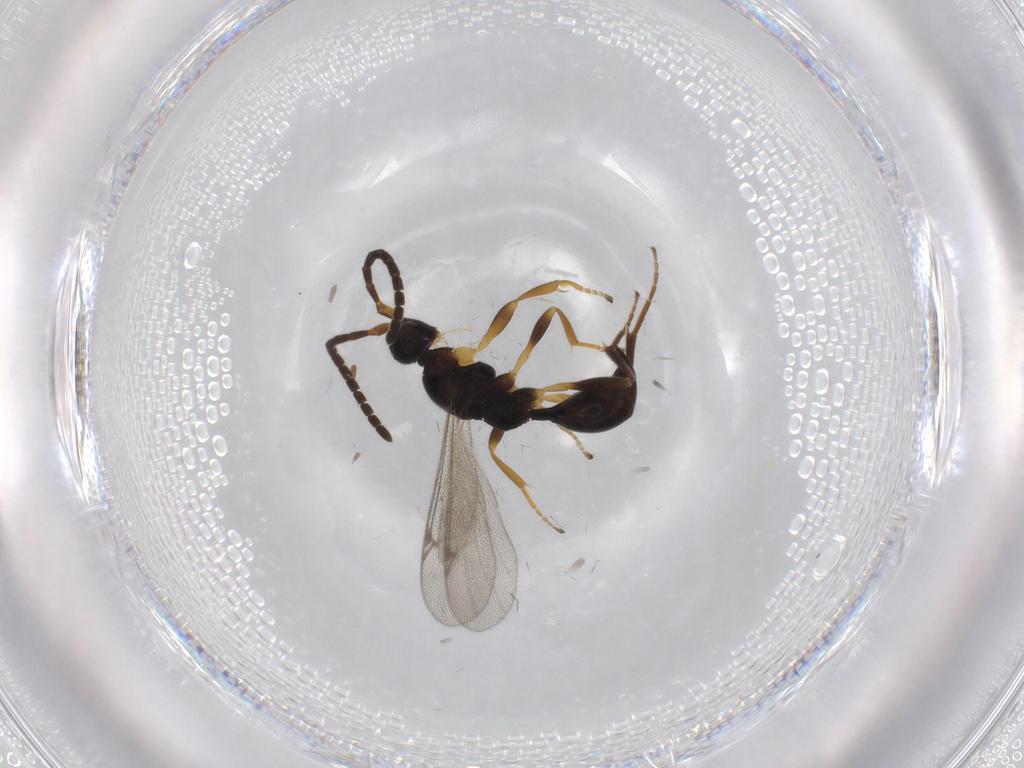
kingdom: Animalia
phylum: Arthropoda
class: Insecta
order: Hymenoptera
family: Proctotrupidae
